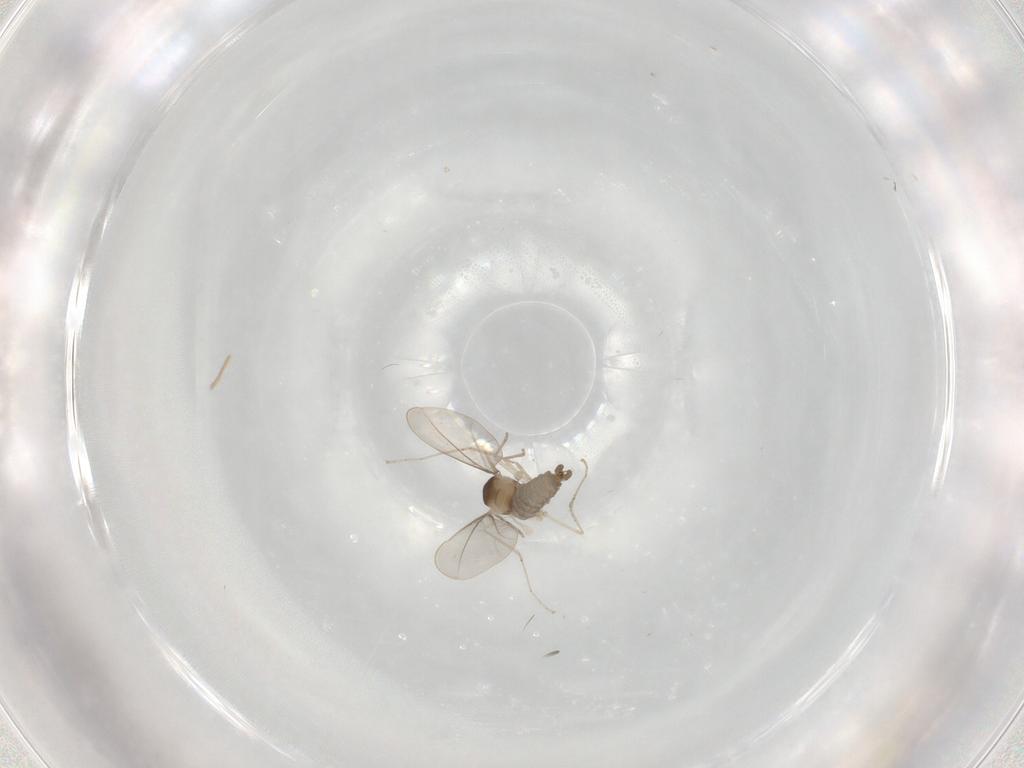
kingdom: Animalia
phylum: Arthropoda
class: Insecta
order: Diptera
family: Cecidomyiidae
